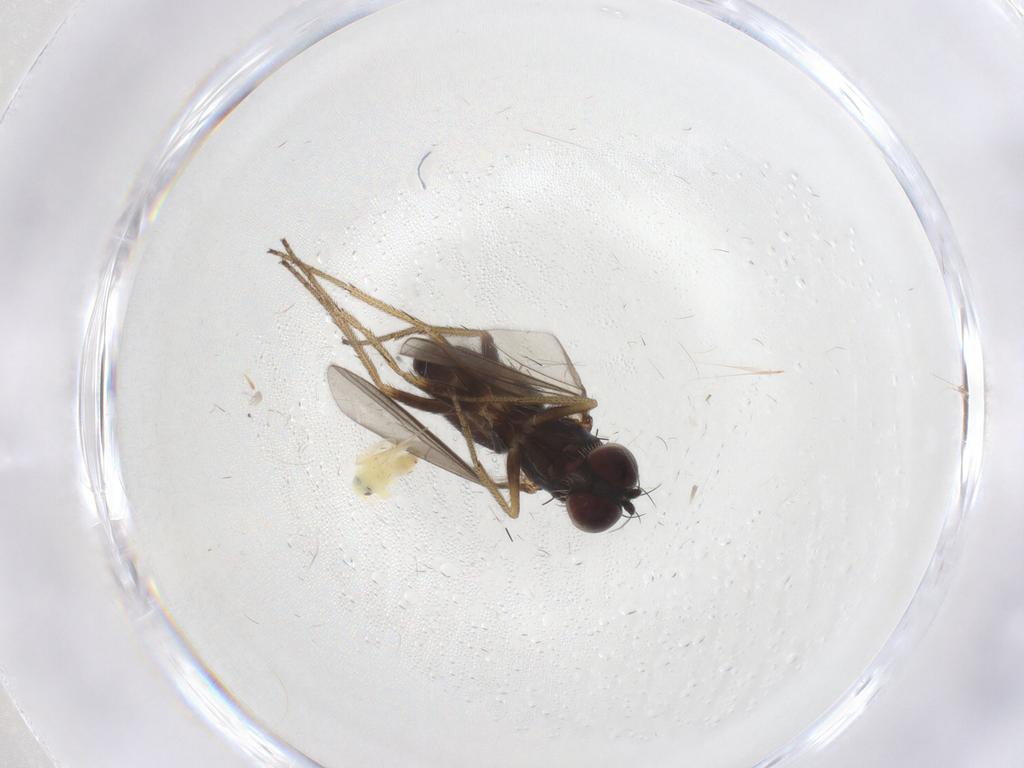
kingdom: Animalia
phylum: Arthropoda
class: Insecta
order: Diptera
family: Dolichopodidae
